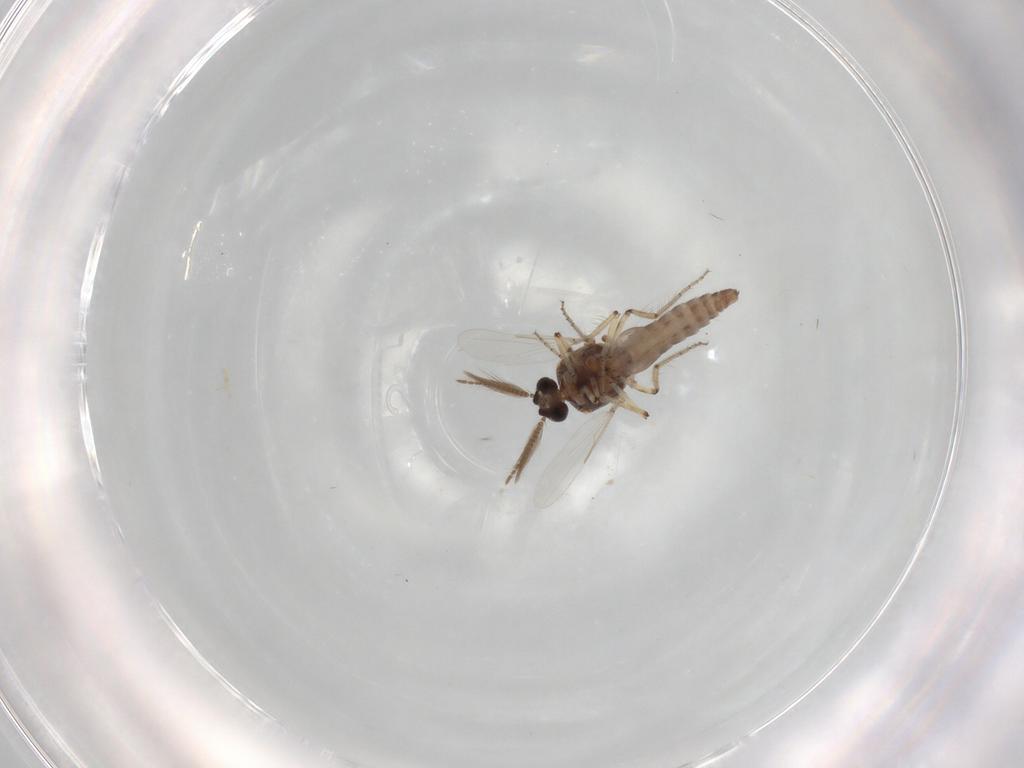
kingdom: Animalia
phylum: Arthropoda
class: Insecta
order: Diptera
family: Ceratopogonidae
